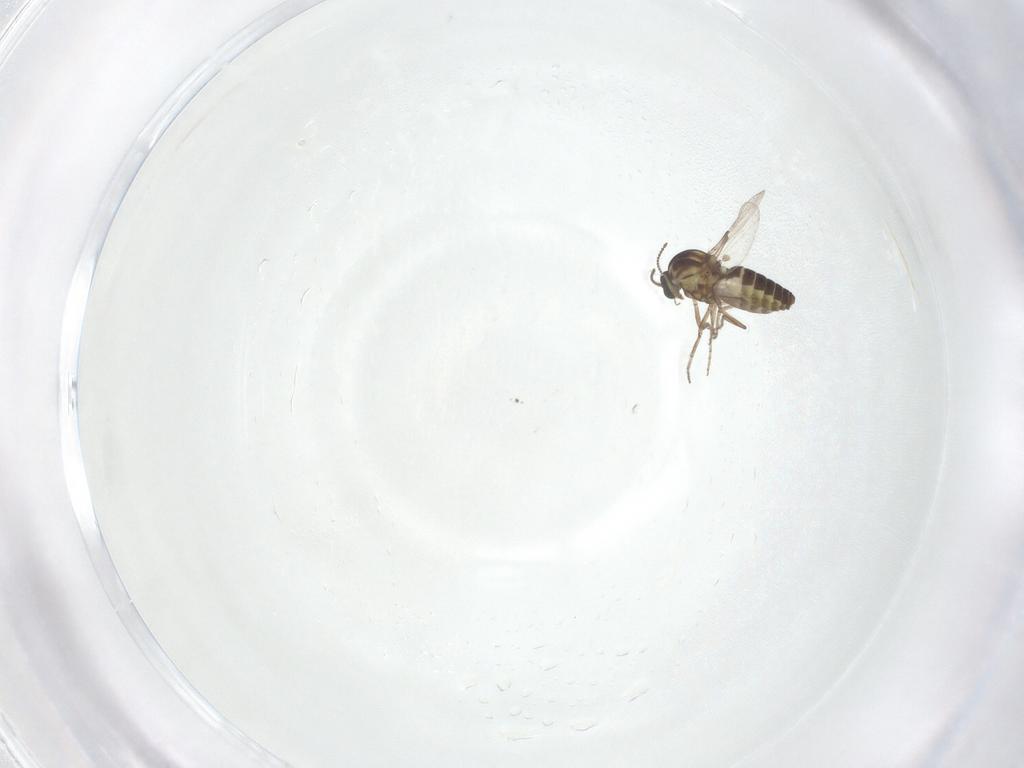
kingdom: Animalia
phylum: Arthropoda
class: Insecta
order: Diptera
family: Ceratopogonidae
